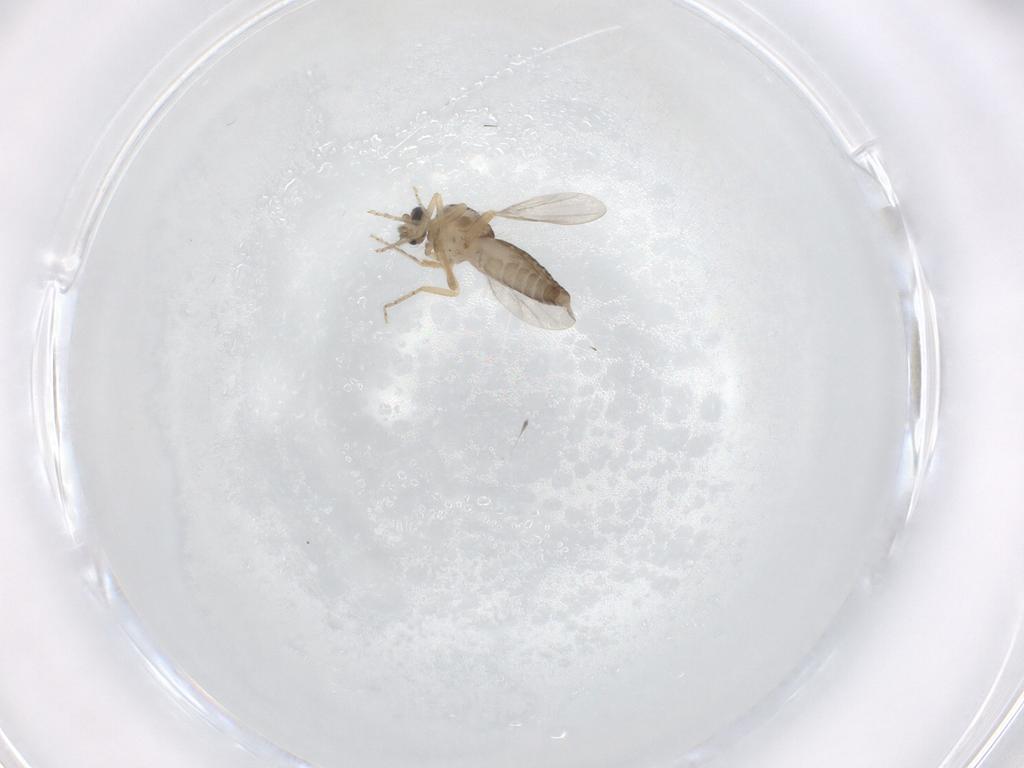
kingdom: Animalia
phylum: Arthropoda
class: Insecta
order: Diptera
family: Ceratopogonidae
